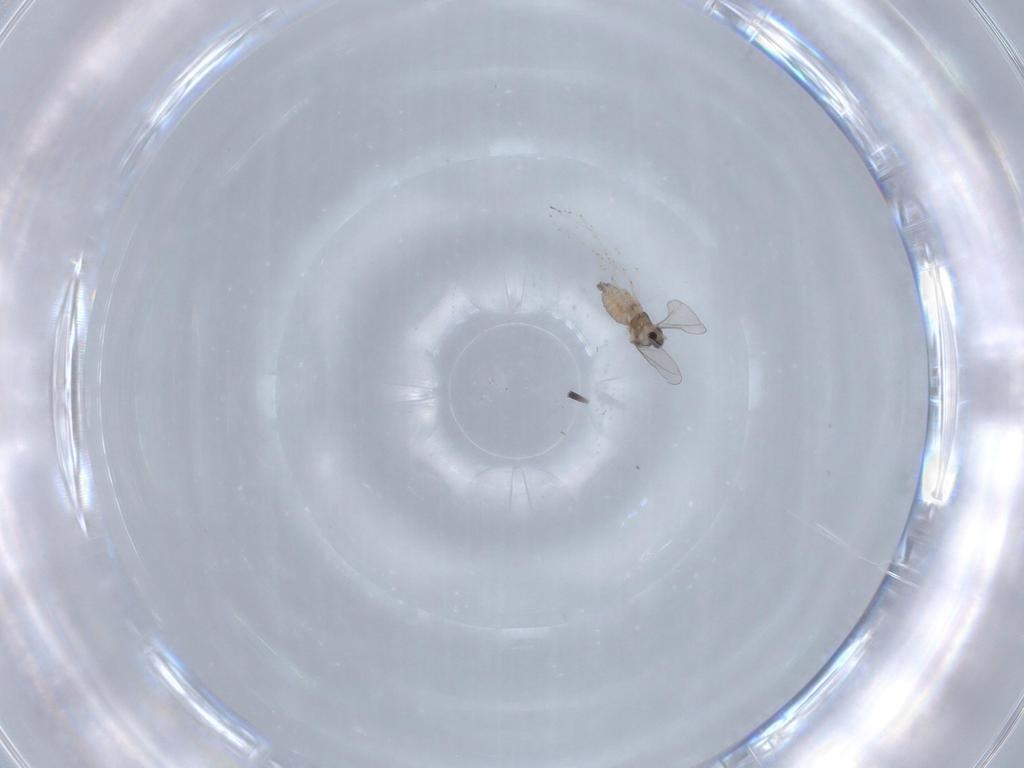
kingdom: Animalia
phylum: Arthropoda
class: Insecta
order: Diptera
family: Cecidomyiidae
